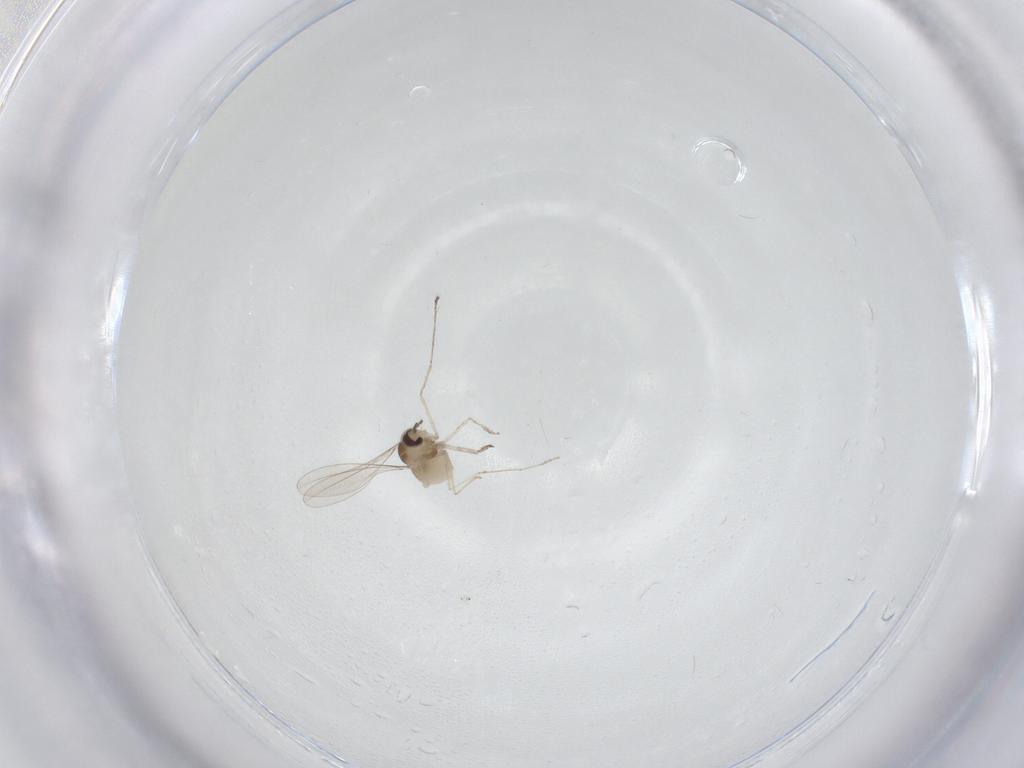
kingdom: Animalia
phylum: Arthropoda
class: Insecta
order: Diptera
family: Cecidomyiidae
